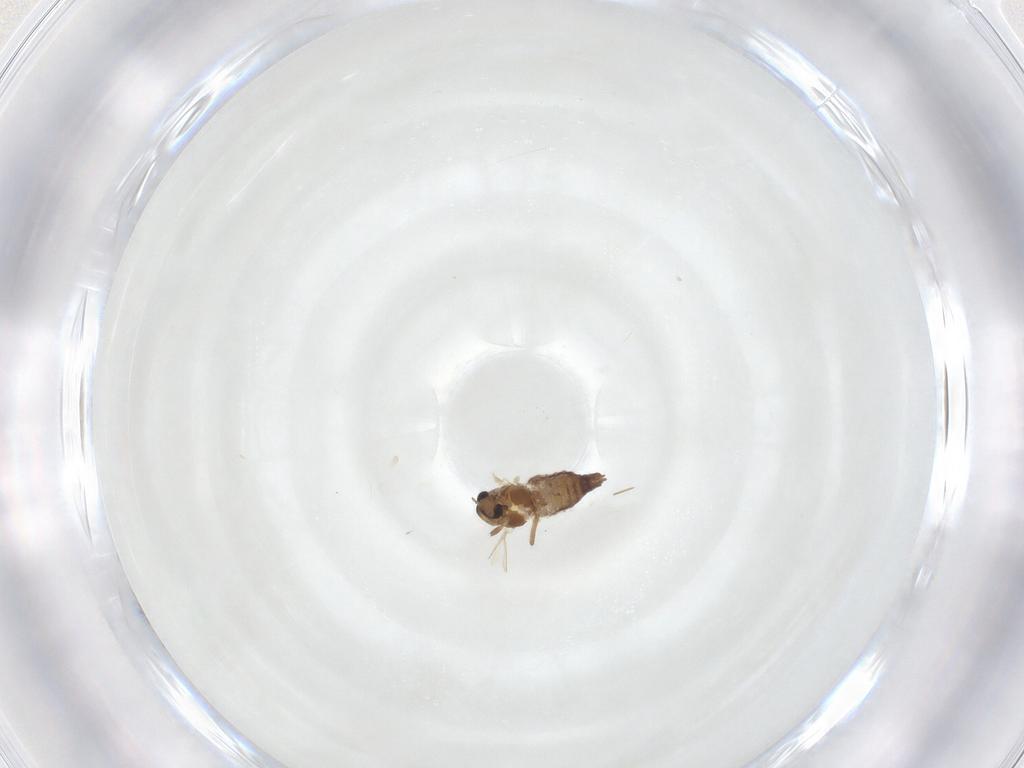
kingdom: Animalia
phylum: Arthropoda
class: Insecta
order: Diptera
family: Chironomidae
